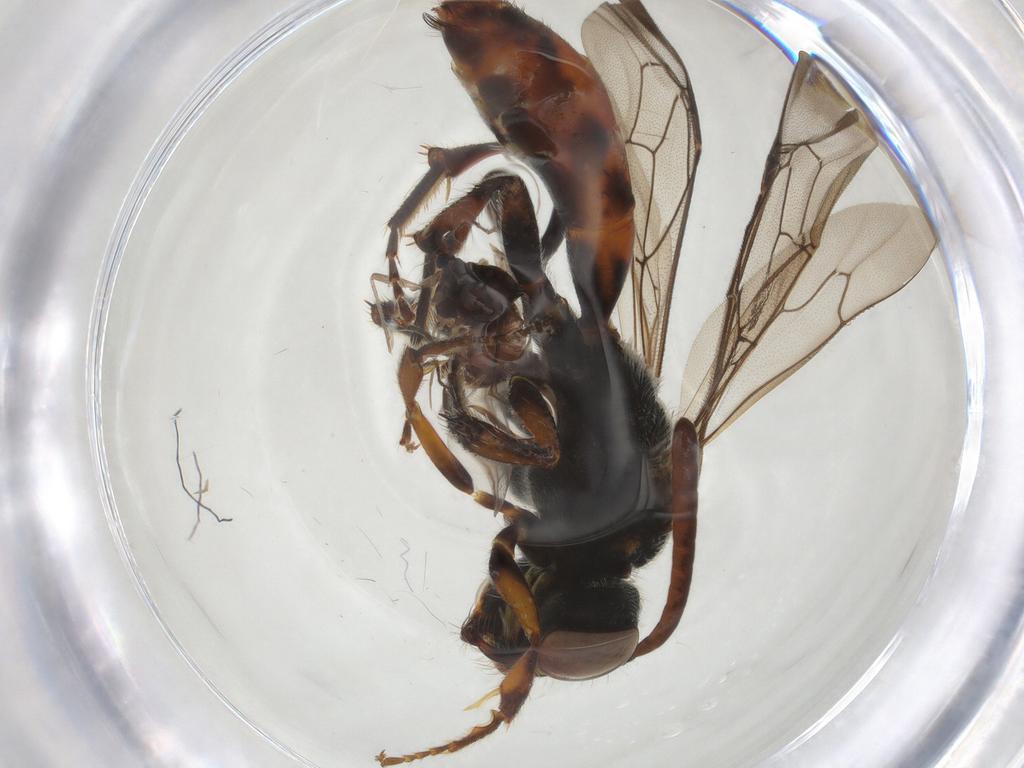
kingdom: Animalia
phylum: Arthropoda
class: Insecta
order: Hymenoptera
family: Apidae
